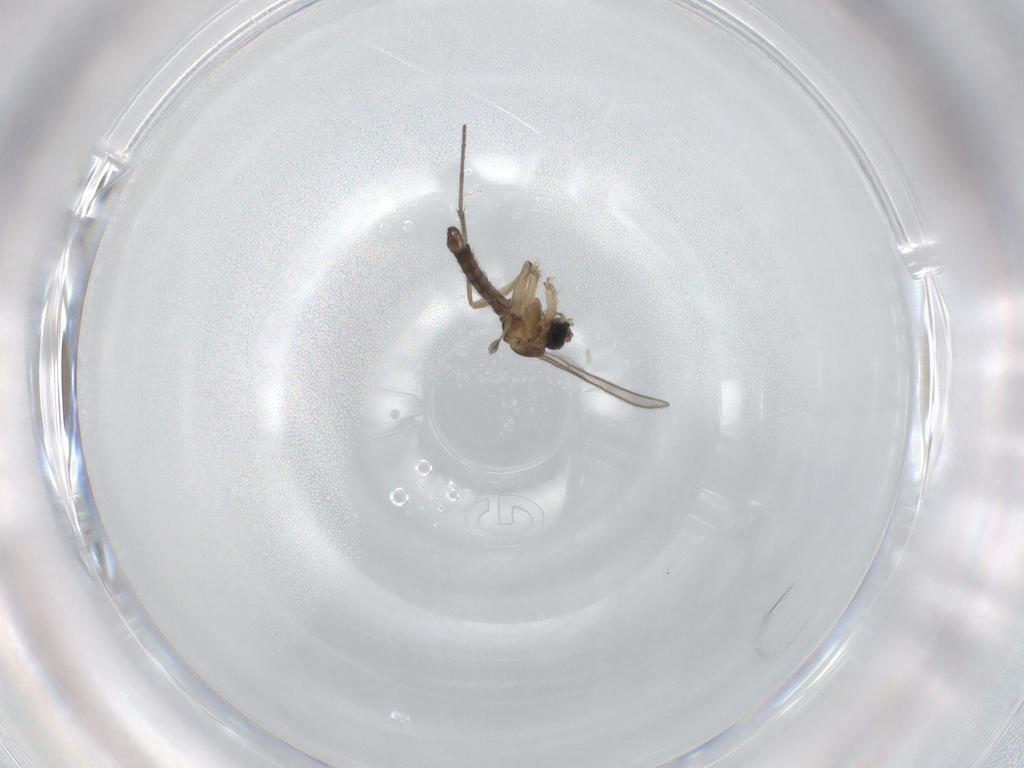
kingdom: Animalia
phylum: Arthropoda
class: Insecta
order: Diptera
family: Sciaridae
